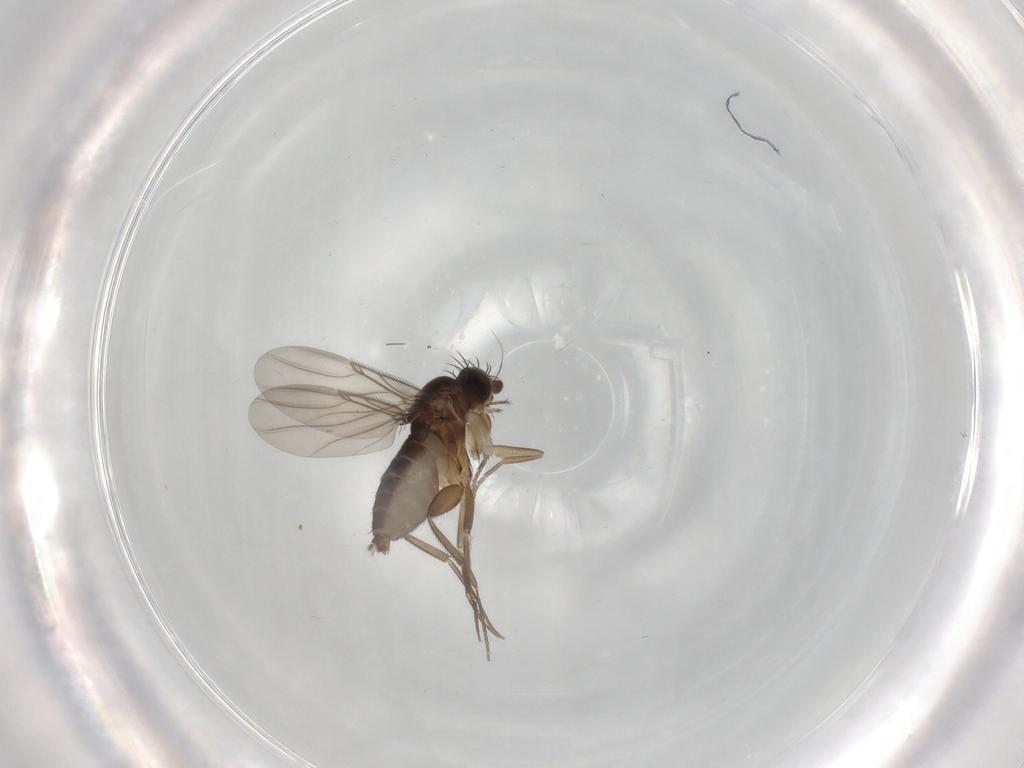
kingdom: Animalia
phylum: Arthropoda
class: Insecta
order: Diptera
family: Phoridae
